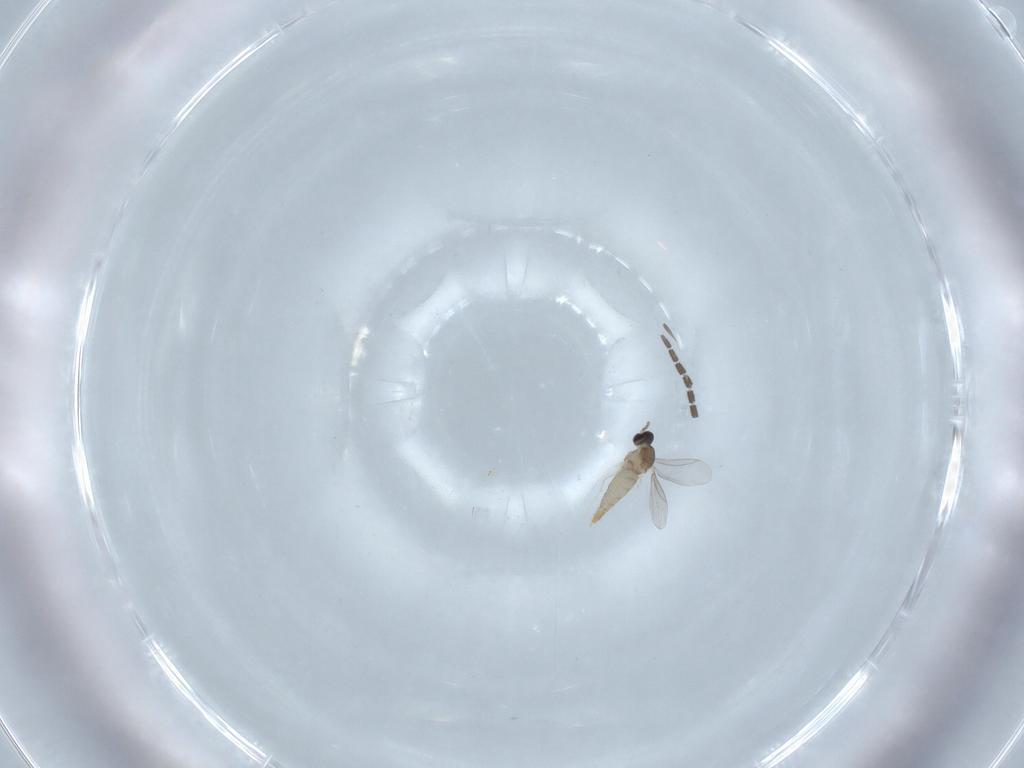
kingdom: Animalia
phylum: Arthropoda
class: Insecta
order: Diptera
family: Cecidomyiidae
